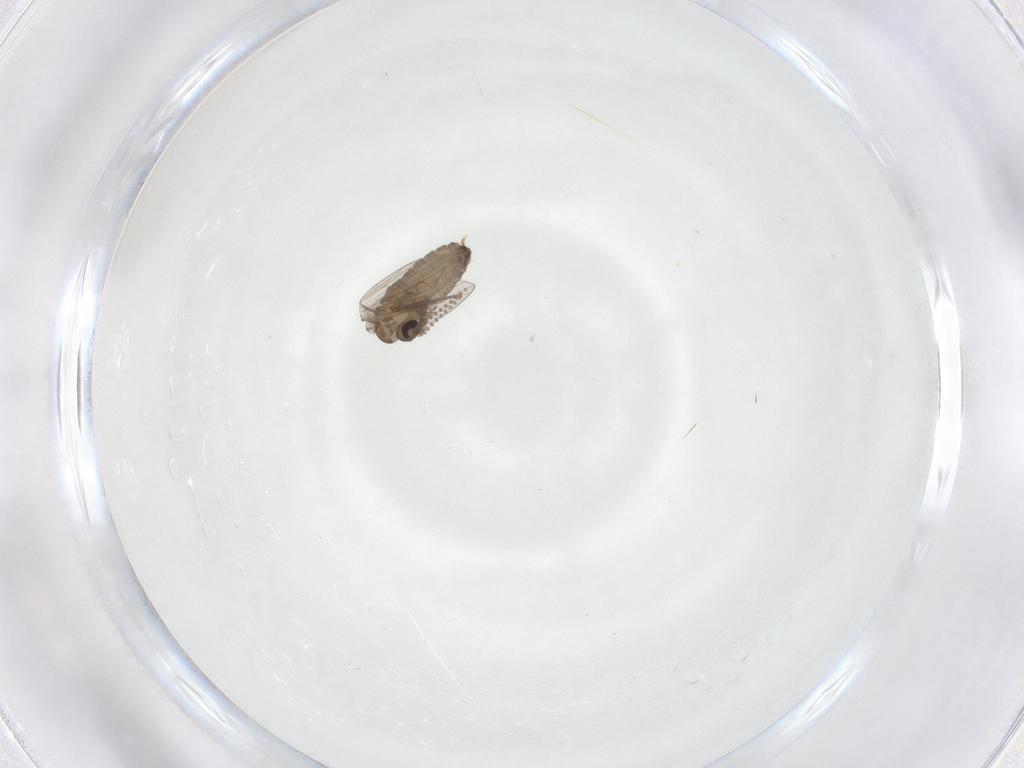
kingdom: Animalia
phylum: Arthropoda
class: Insecta
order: Diptera
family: Psychodidae
